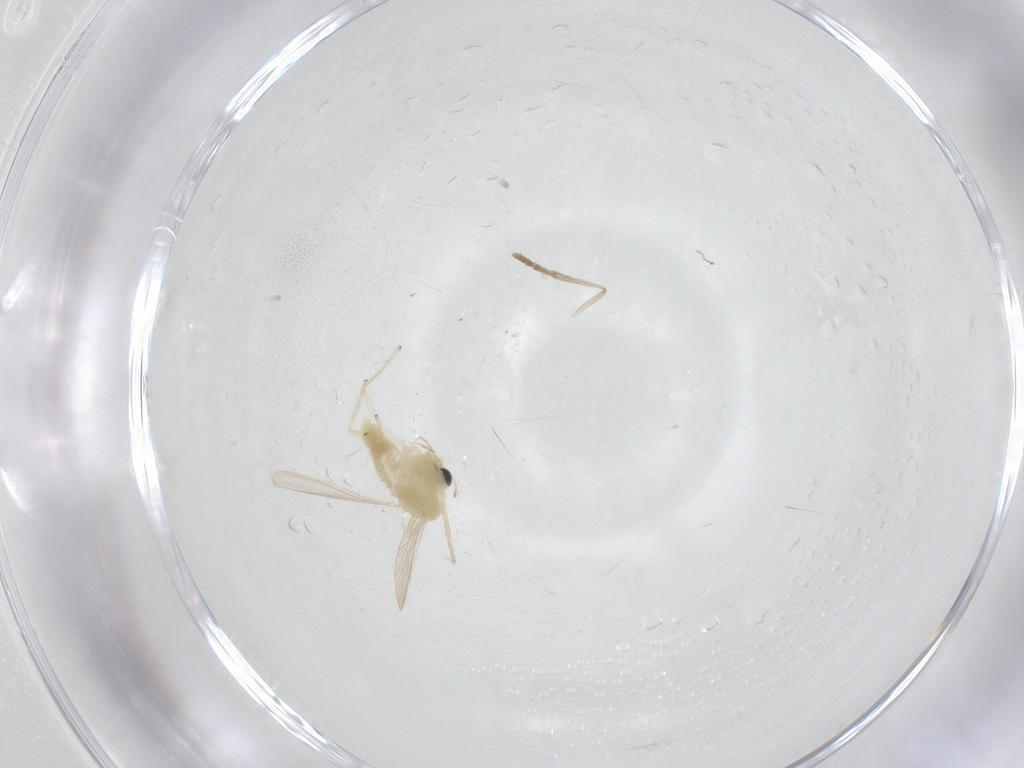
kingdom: Animalia
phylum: Arthropoda
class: Insecta
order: Diptera
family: Chironomidae
